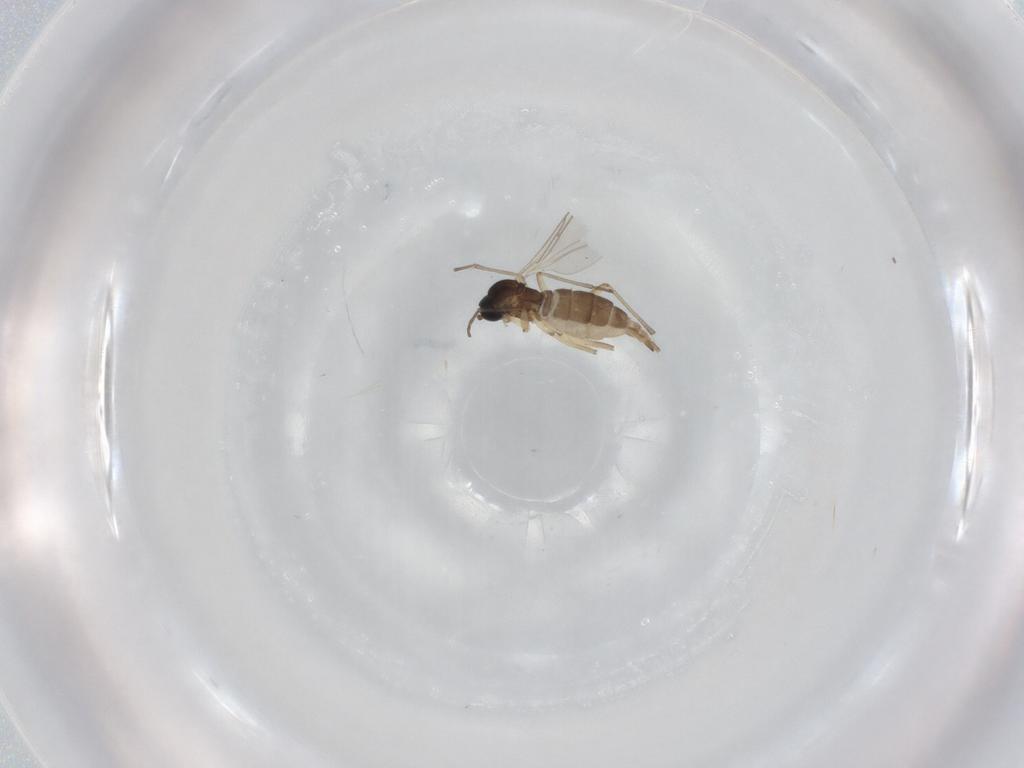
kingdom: Animalia
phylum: Arthropoda
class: Insecta
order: Diptera
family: Sciaridae
